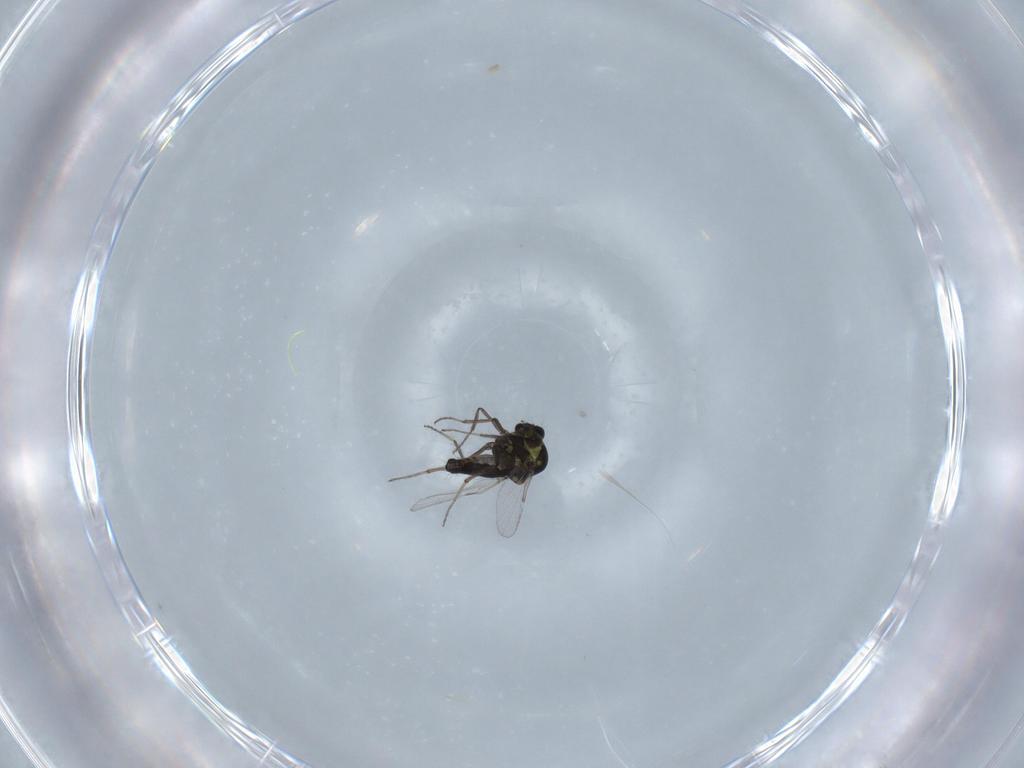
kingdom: Animalia
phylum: Arthropoda
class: Insecta
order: Diptera
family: Ceratopogonidae
